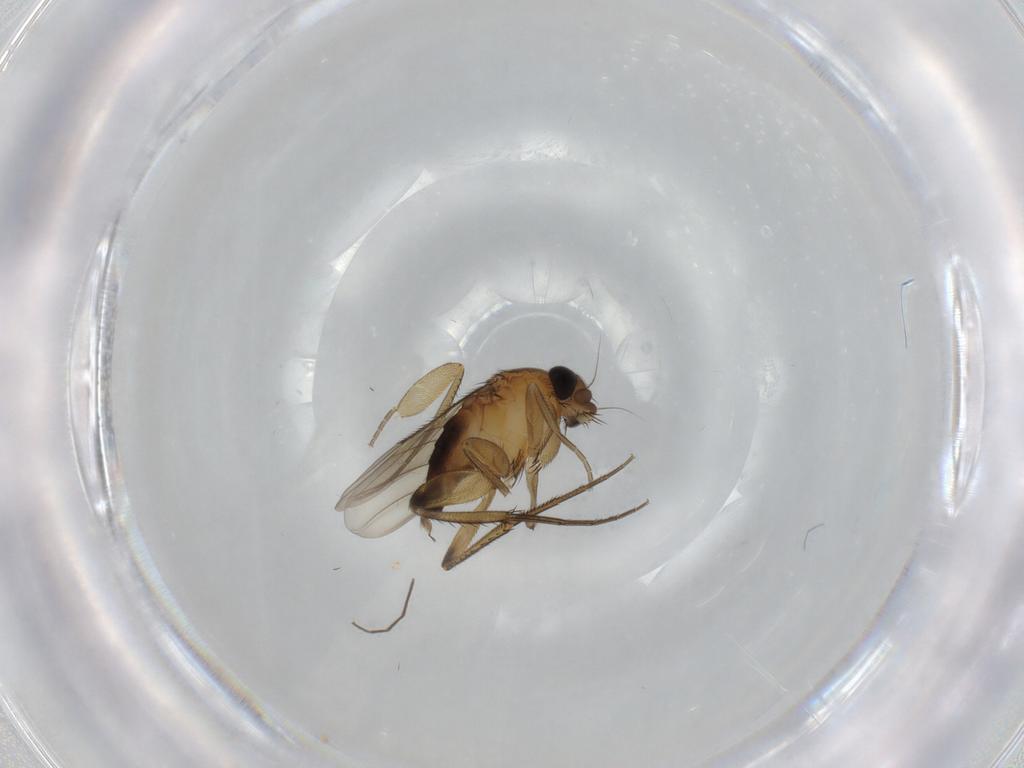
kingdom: Animalia
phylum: Arthropoda
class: Insecta
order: Diptera
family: Phoridae
